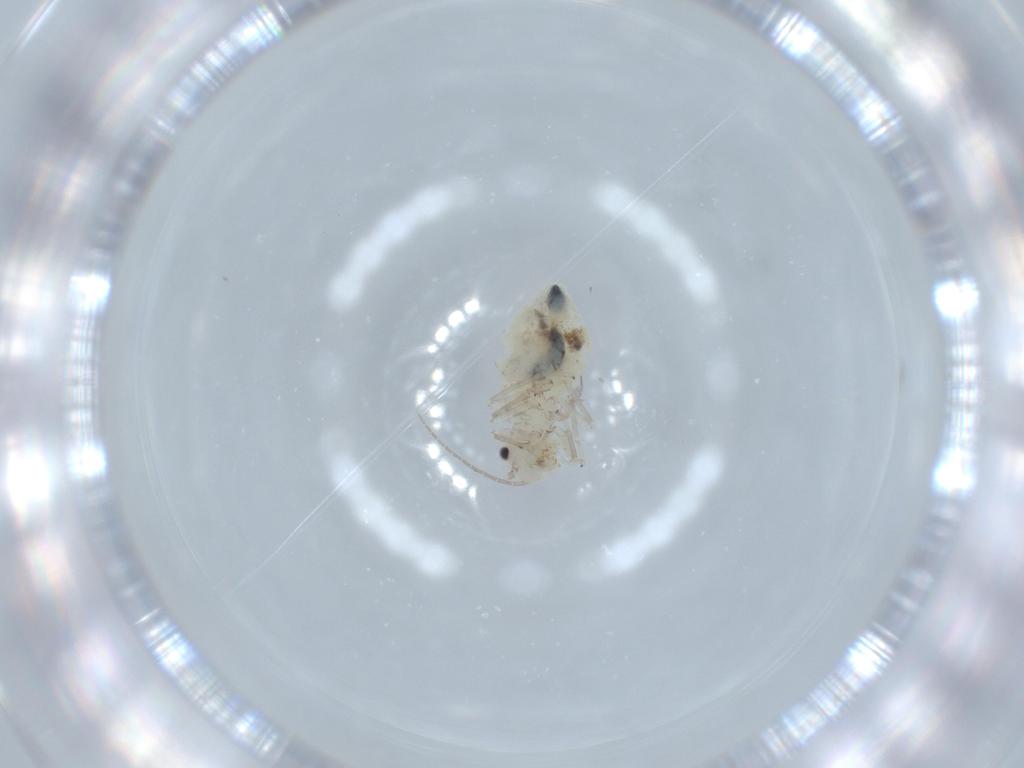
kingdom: Animalia
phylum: Arthropoda
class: Insecta
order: Psocodea
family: Caeciliusidae
